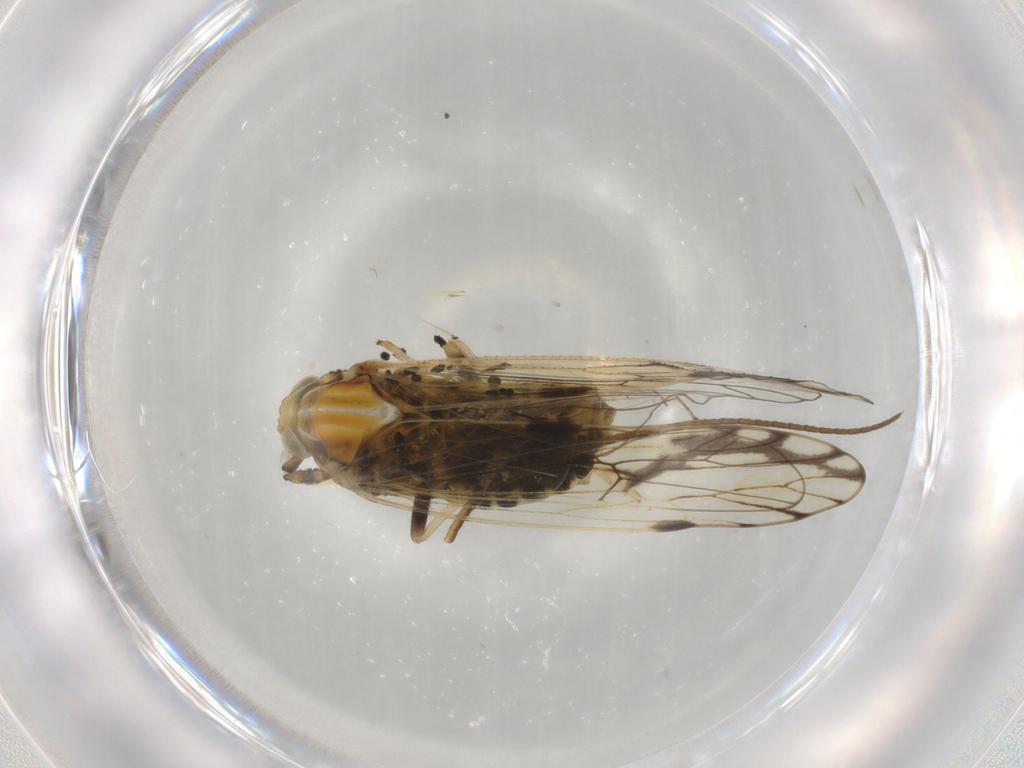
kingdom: Animalia
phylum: Arthropoda
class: Insecta
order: Hemiptera
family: Delphacidae
